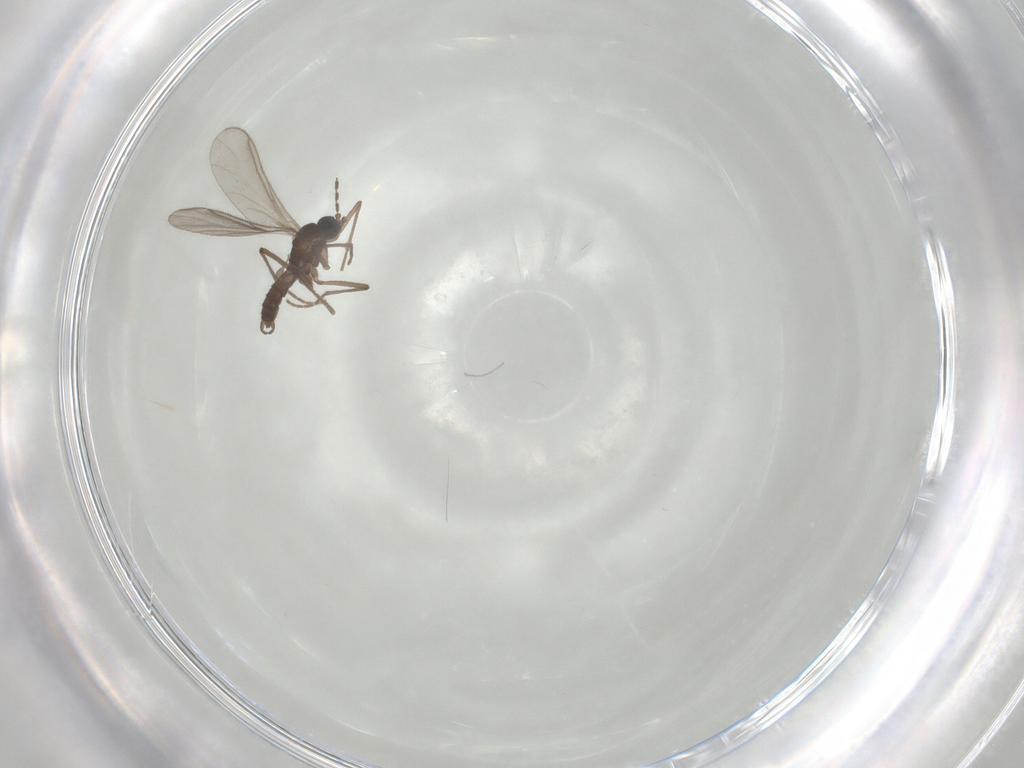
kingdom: Animalia
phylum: Arthropoda
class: Insecta
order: Diptera
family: Sciaridae
